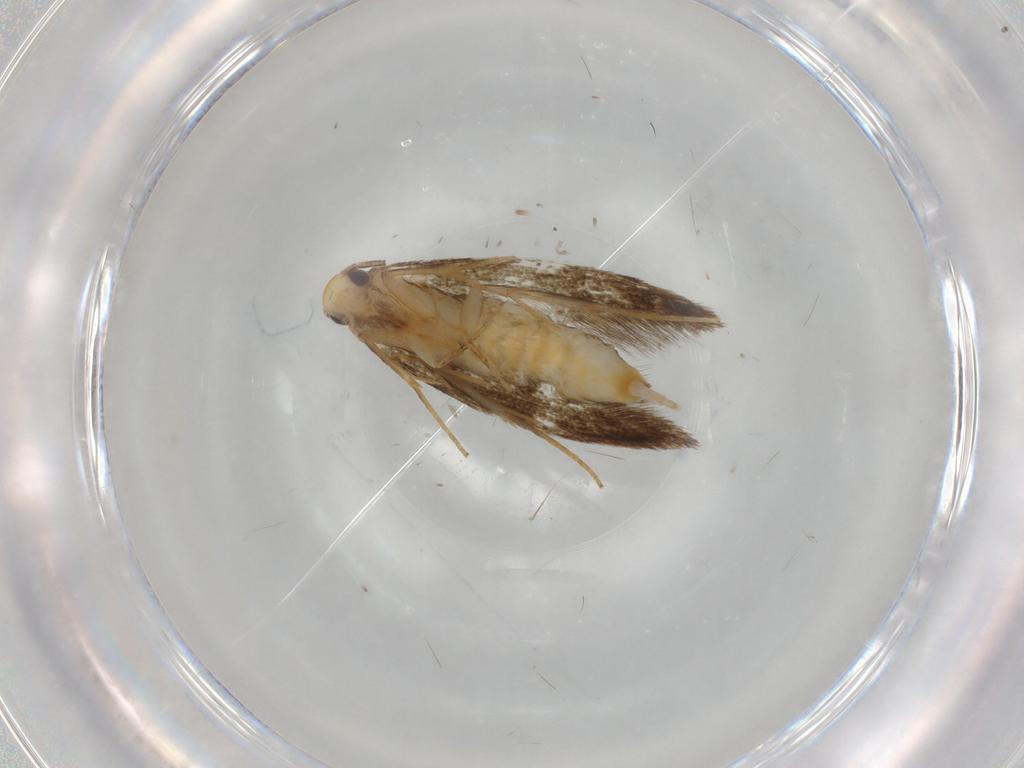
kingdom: Animalia
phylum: Arthropoda
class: Insecta
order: Lepidoptera
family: Tineidae
